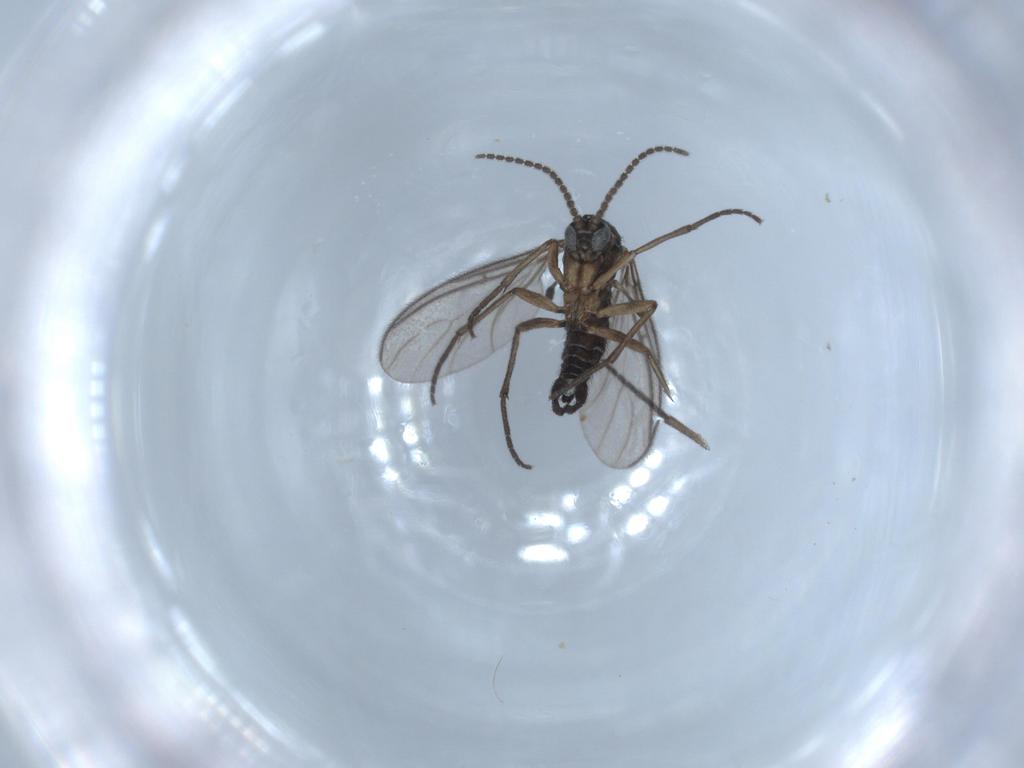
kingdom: Animalia
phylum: Arthropoda
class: Insecta
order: Diptera
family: Sciaridae
